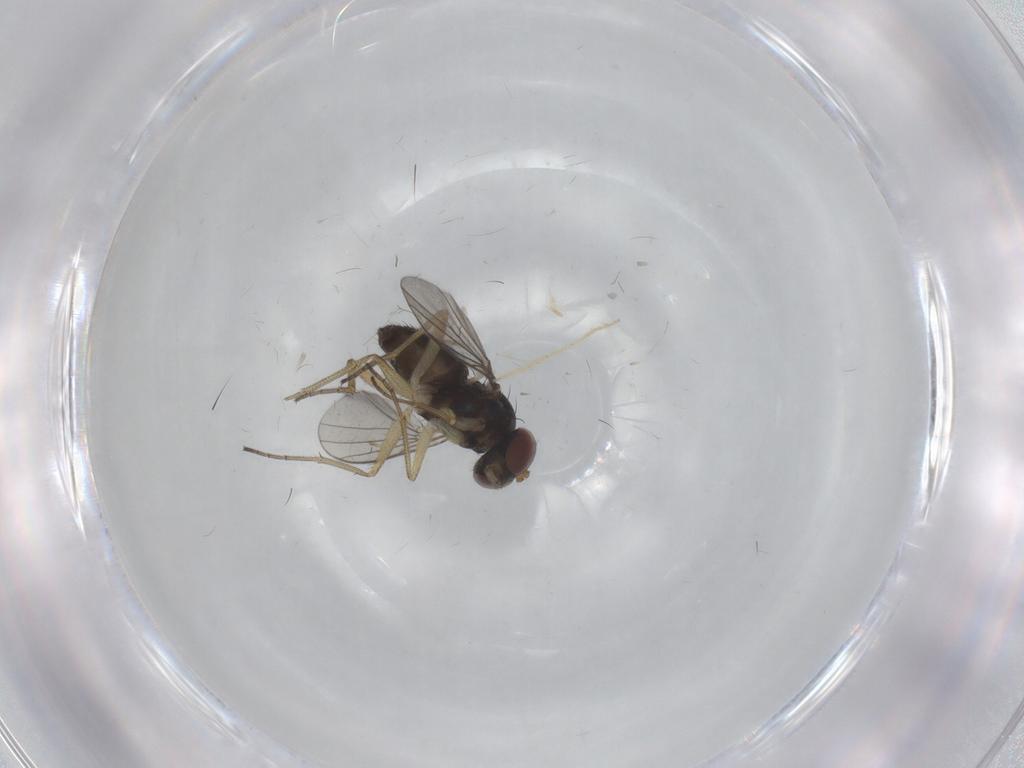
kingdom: Animalia
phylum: Arthropoda
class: Insecta
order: Diptera
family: Dolichopodidae
